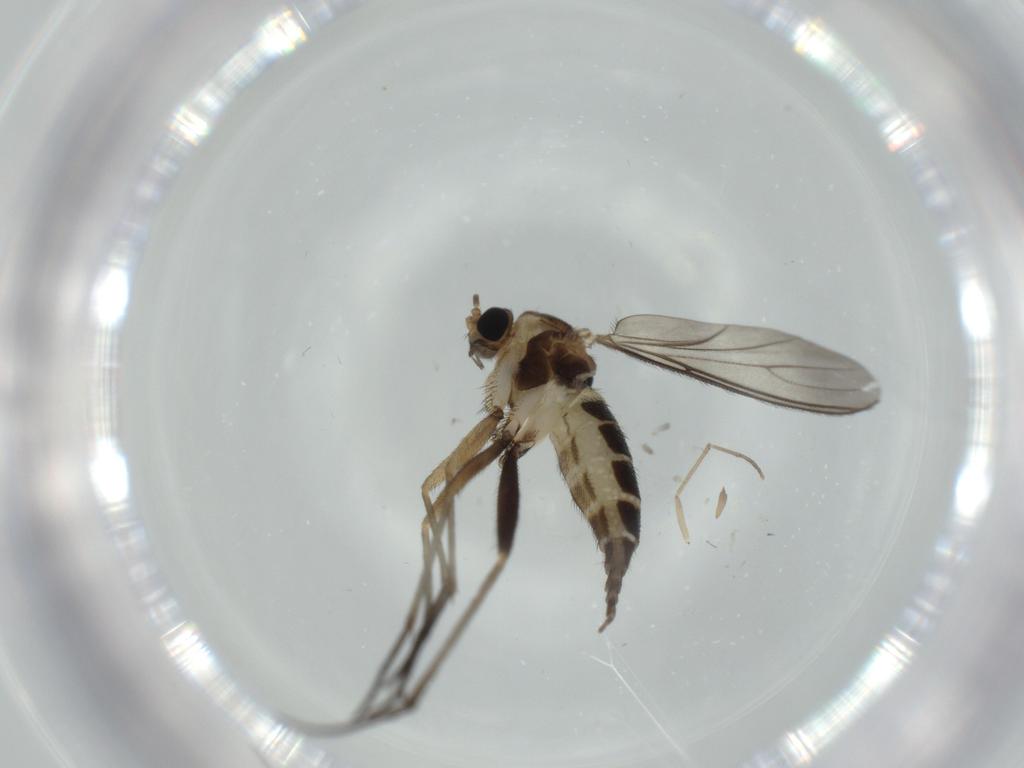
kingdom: Animalia
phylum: Arthropoda
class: Insecta
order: Diptera
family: Sciaridae
